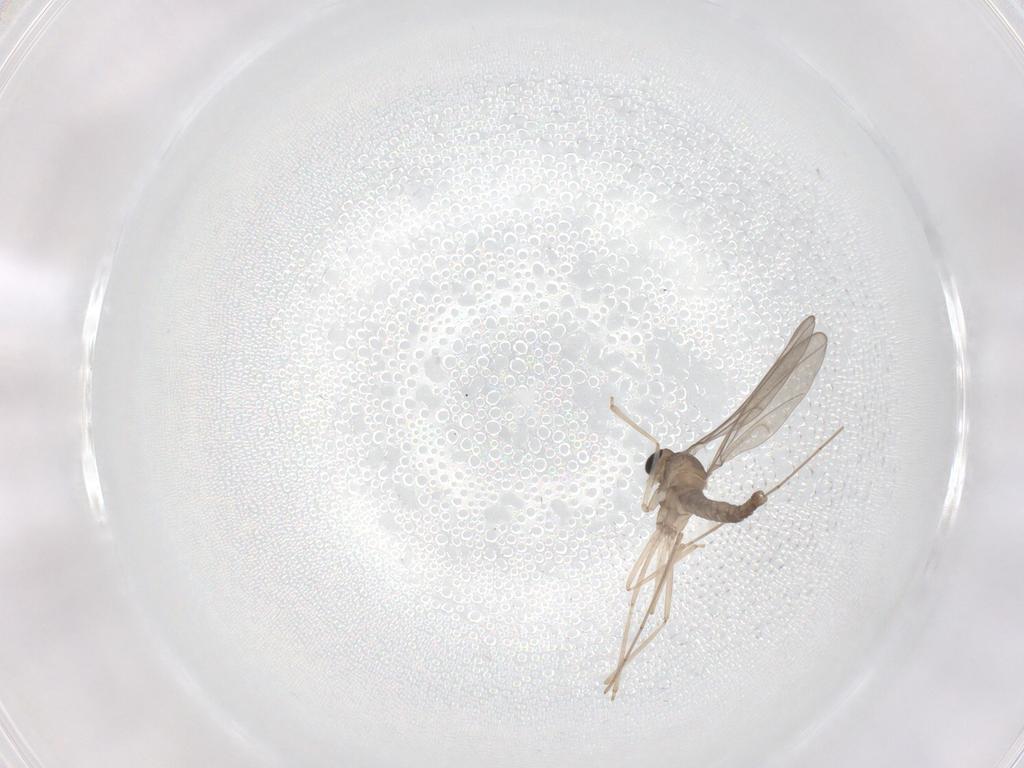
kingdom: Animalia
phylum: Arthropoda
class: Insecta
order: Diptera
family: Cecidomyiidae
